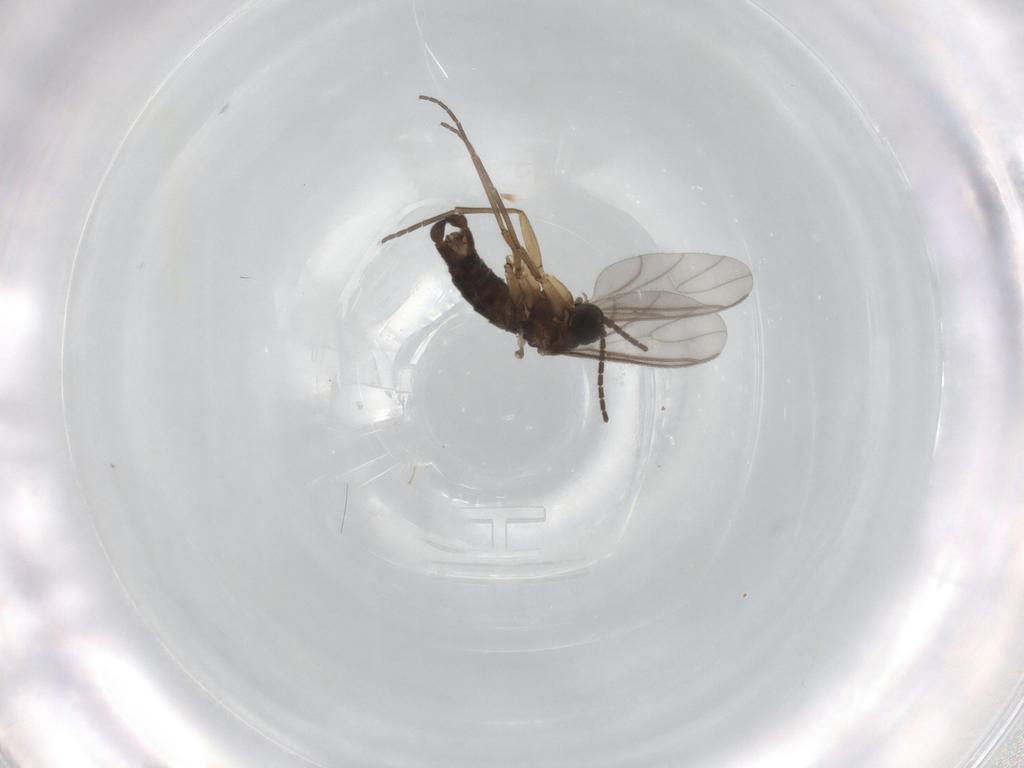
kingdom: Animalia
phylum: Arthropoda
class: Insecta
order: Diptera
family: Sciaridae
